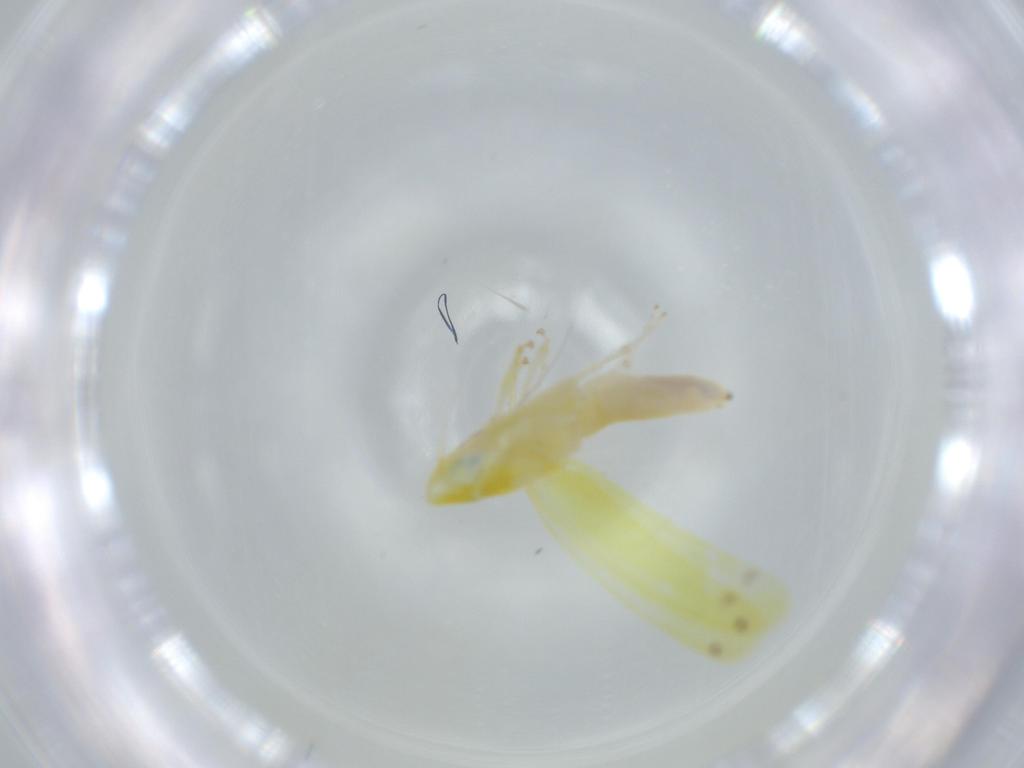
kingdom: Animalia
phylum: Arthropoda
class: Insecta
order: Hemiptera
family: Cicadellidae
